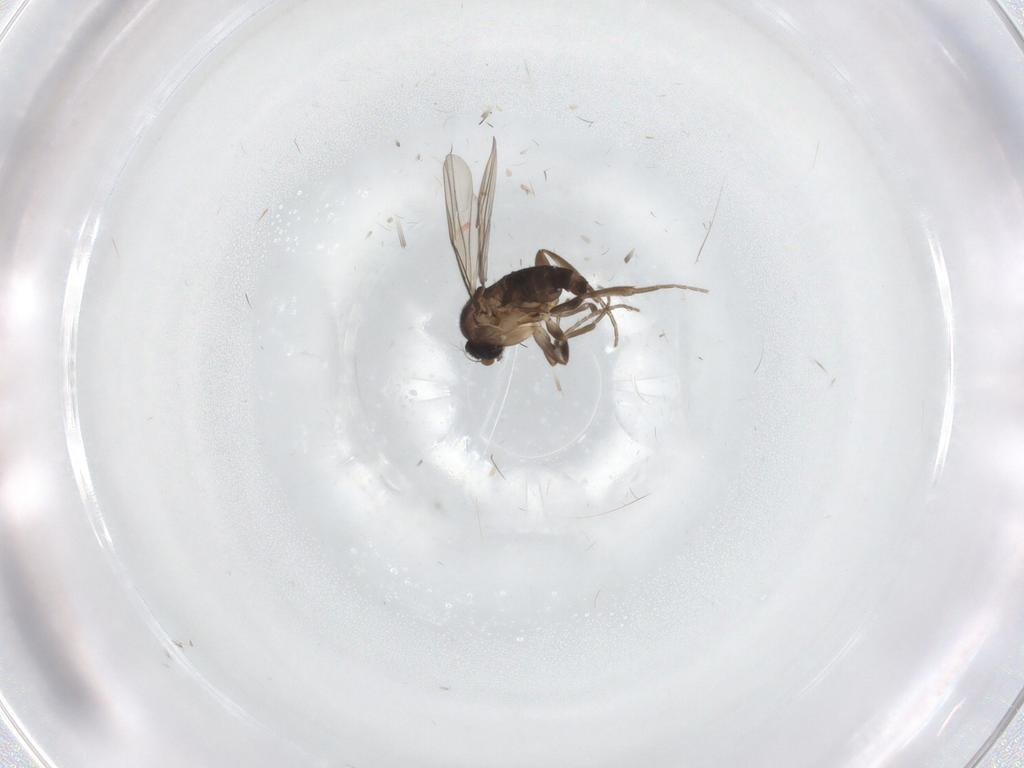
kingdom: Animalia
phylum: Arthropoda
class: Insecta
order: Diptera
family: Phoridae
